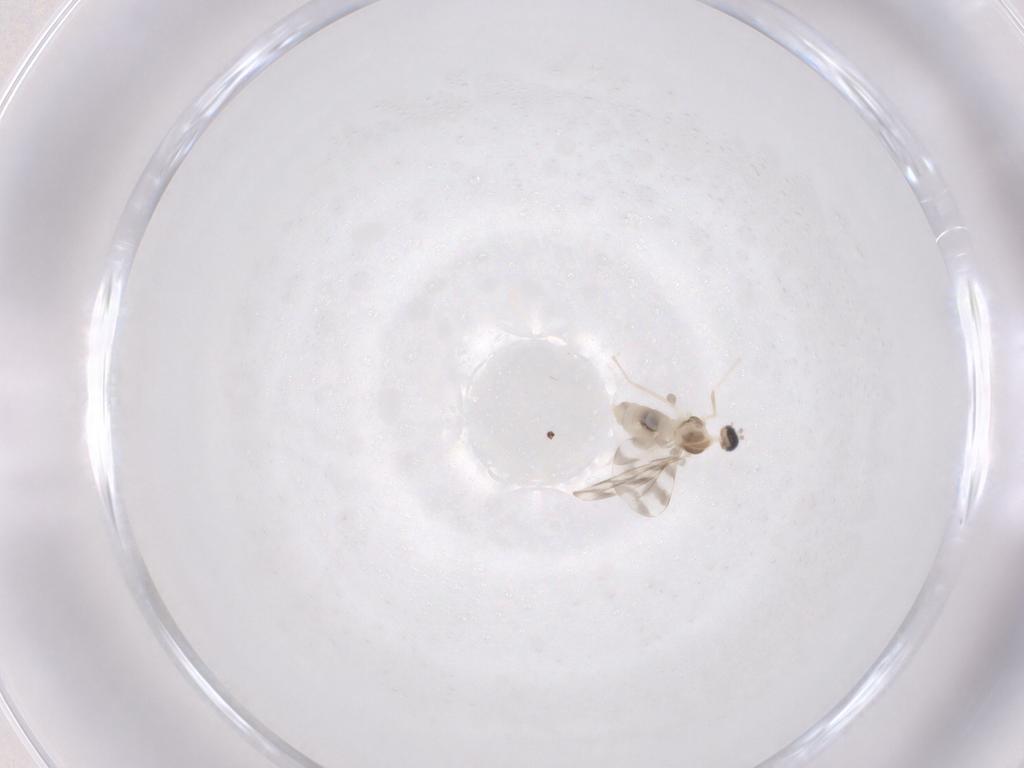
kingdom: Animalia
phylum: Arthropoda
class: Insecta
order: Diptera
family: Cecidomyiidae
